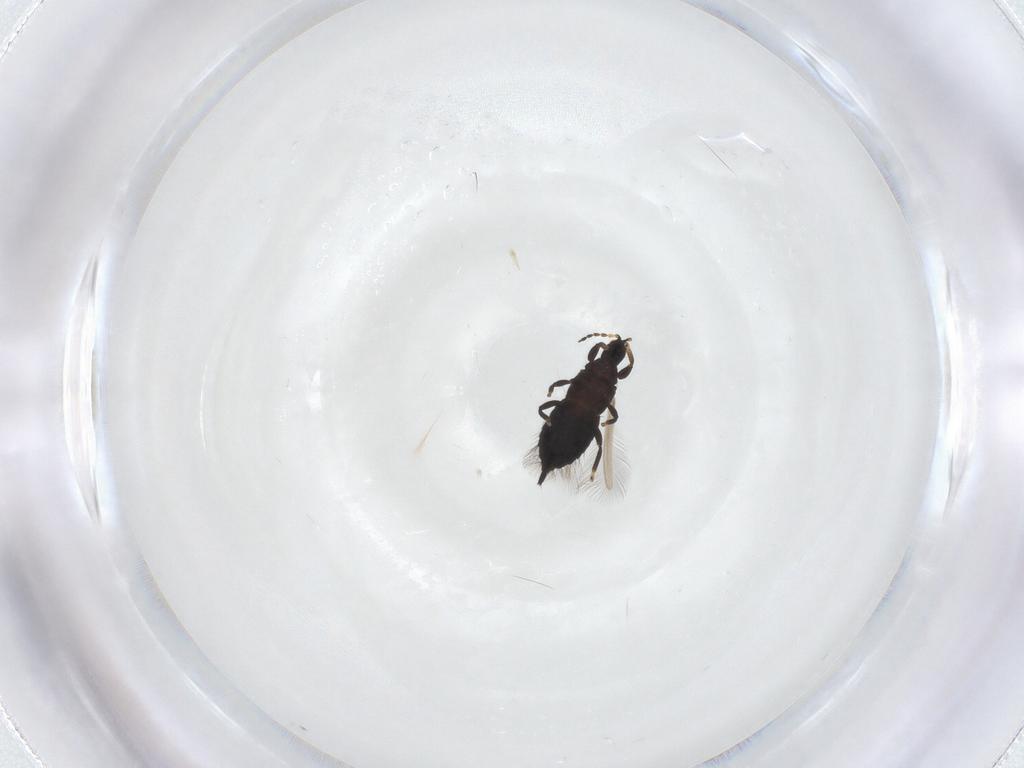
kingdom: Animalia
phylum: Arthropoda
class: Insecta
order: Thysanoptera
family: Phlaeothripidae
